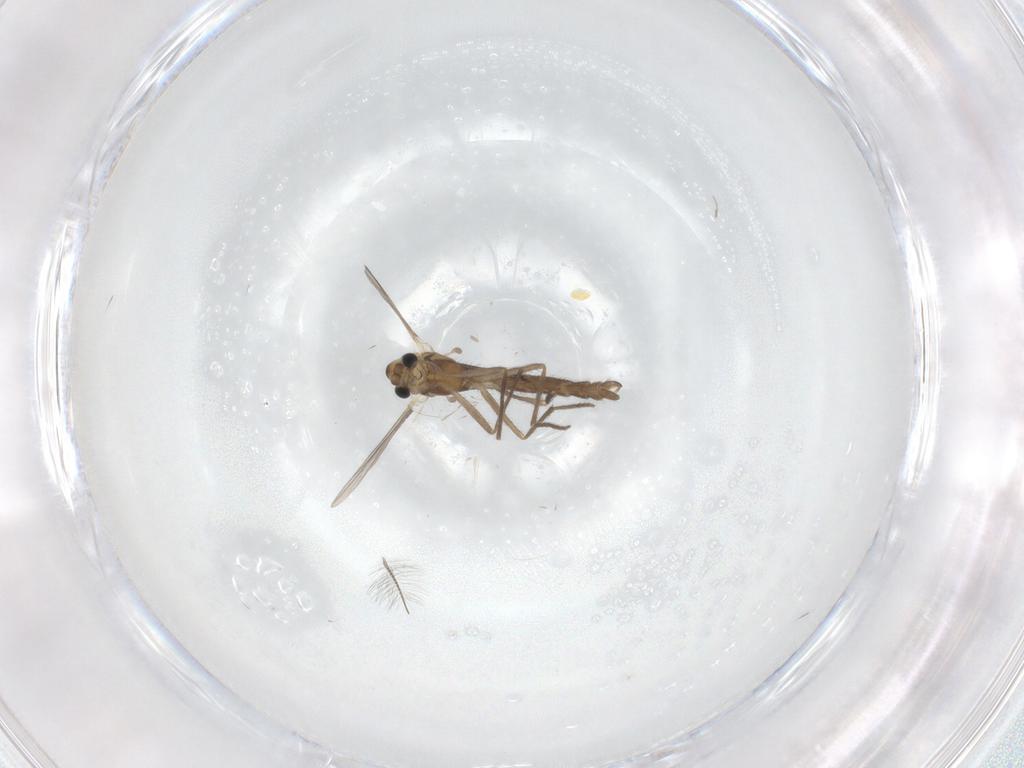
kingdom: Animalia
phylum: Arthropoda
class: Insecta
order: Diptera
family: Chironomidae
